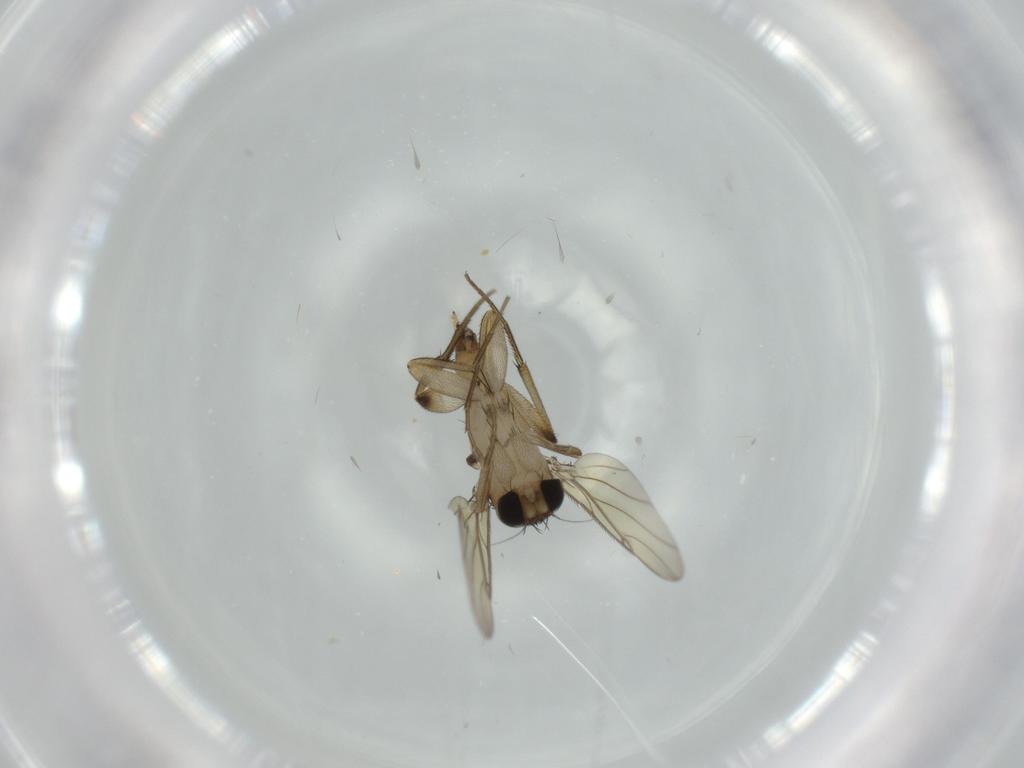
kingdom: Animalia
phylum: Arthropoda
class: Insecta
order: Diptera
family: Phoridae
